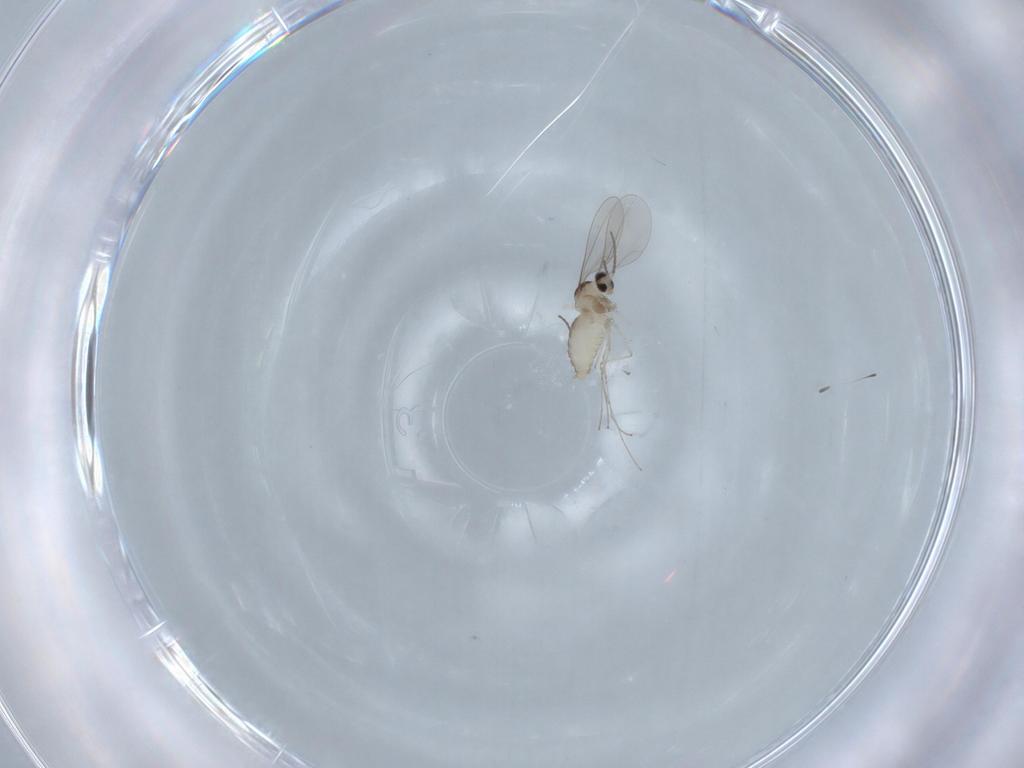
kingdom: Animalia
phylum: Arthropoda
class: Insecta
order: Diptera
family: Cecidomyiidae
